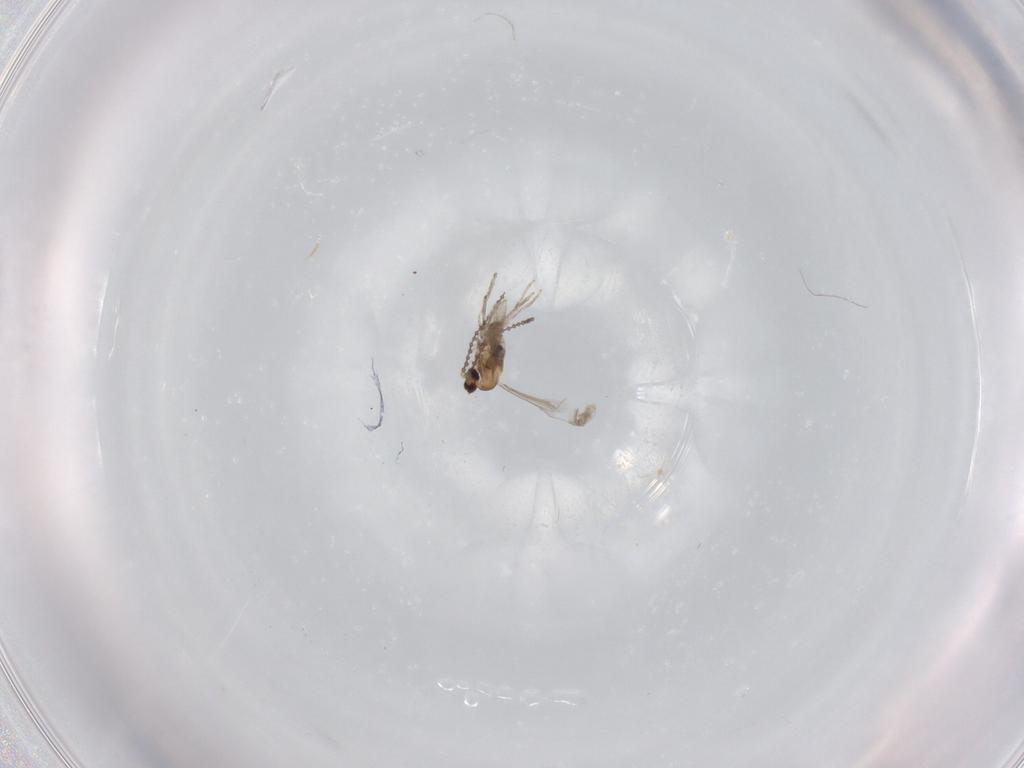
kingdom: Animalia
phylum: Arthropoda
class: Insecta
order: Diptera
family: Cecidomyiidae
